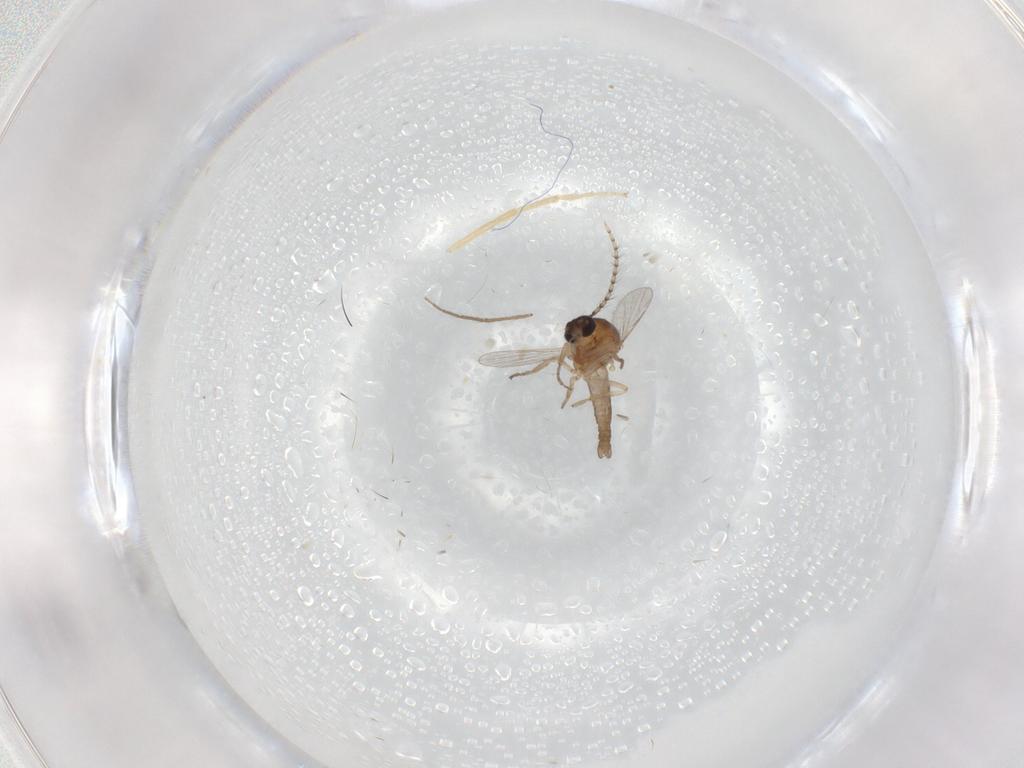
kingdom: Animalia
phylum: Arthropoda
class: Insecta
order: Diptera
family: Cecidomyiidae
